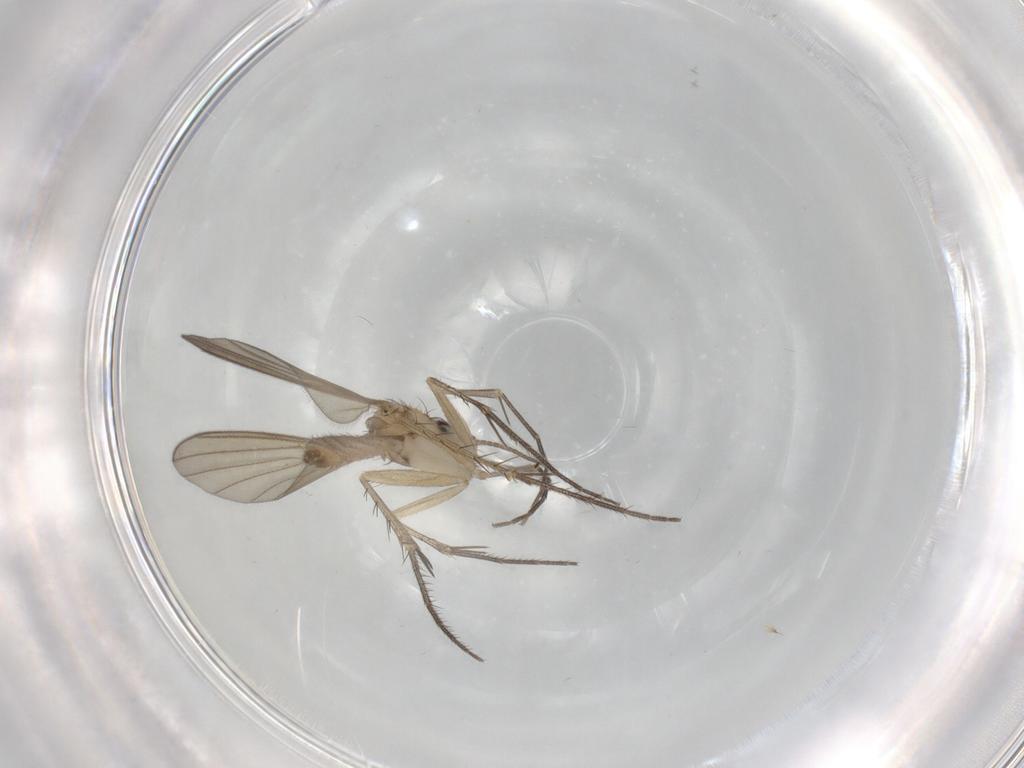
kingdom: Animalia
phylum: Arthropoda
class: Insecta
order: Diptera
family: Mycetophilidae
